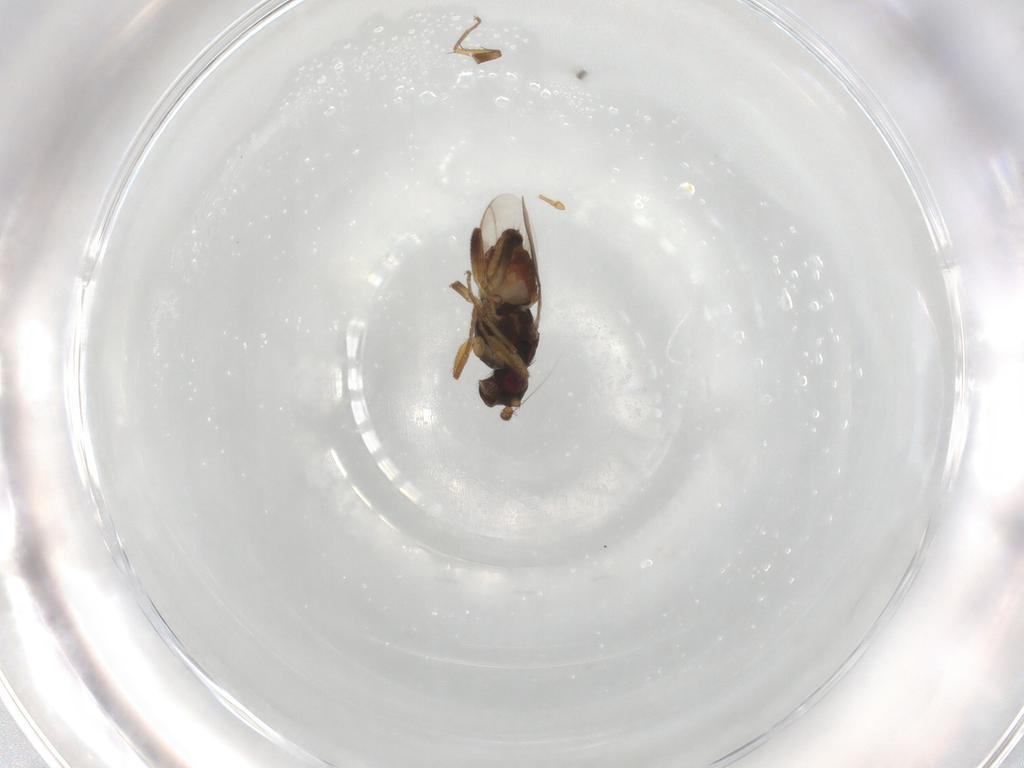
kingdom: Animalia
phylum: Arthropoda
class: Insecta
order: Diptera
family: Sphaeroceridae
